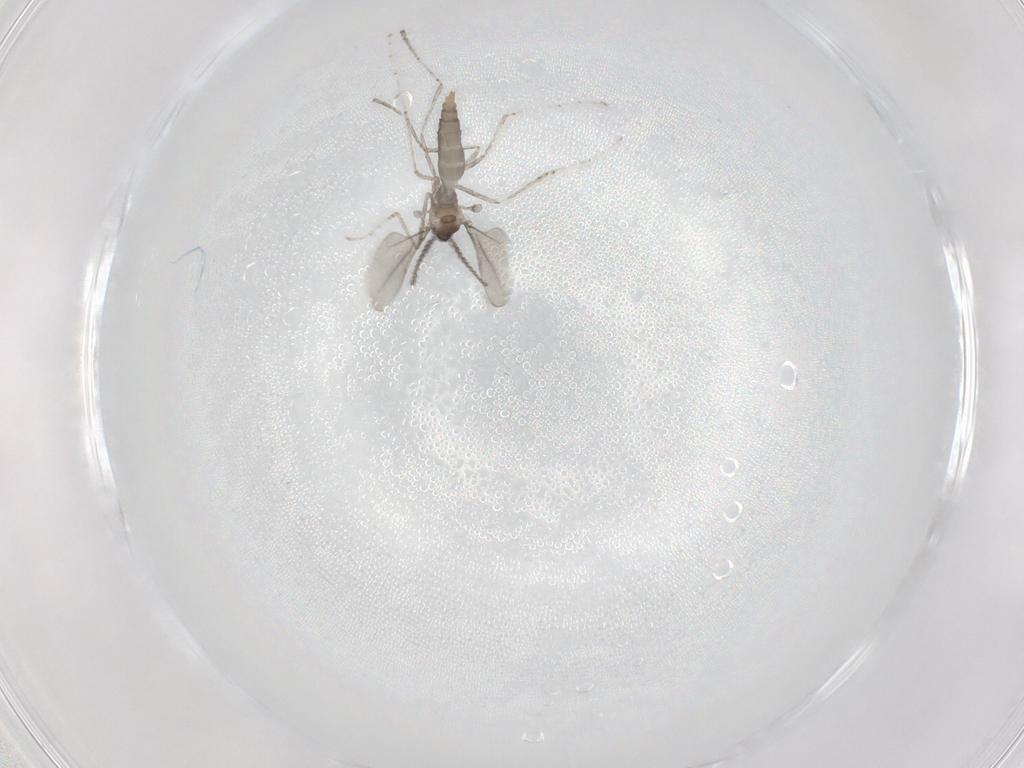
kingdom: Animalia
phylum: Arthropoda
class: Insecta
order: Diptera
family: Cecidomyiidae
